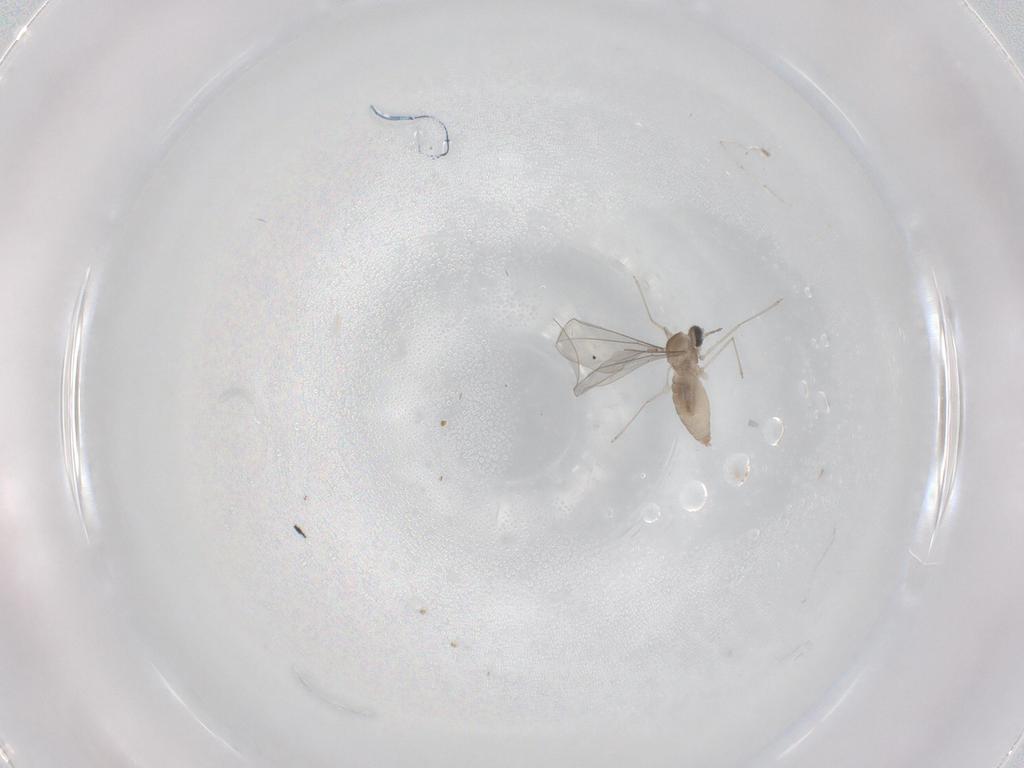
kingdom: Animalia
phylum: Arthropoda
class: Insecta
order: Diptera
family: Cecidomyiidae
